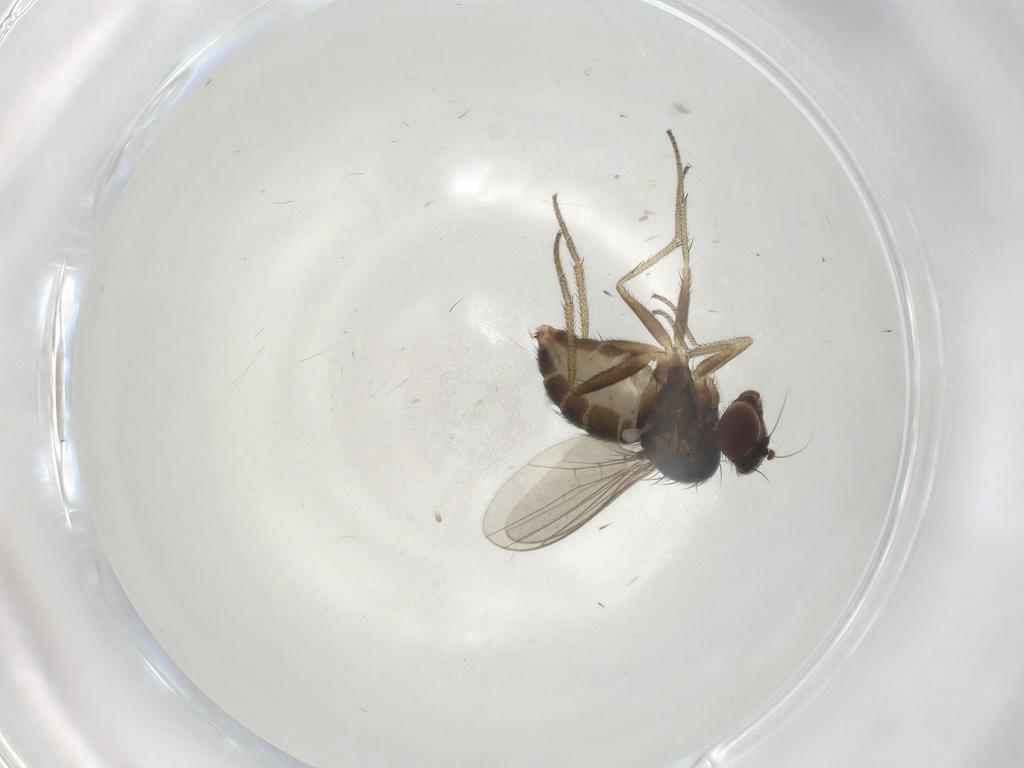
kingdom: Animalia
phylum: Arthropoda
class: Insecta
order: Diptera
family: Dolichopodidae
